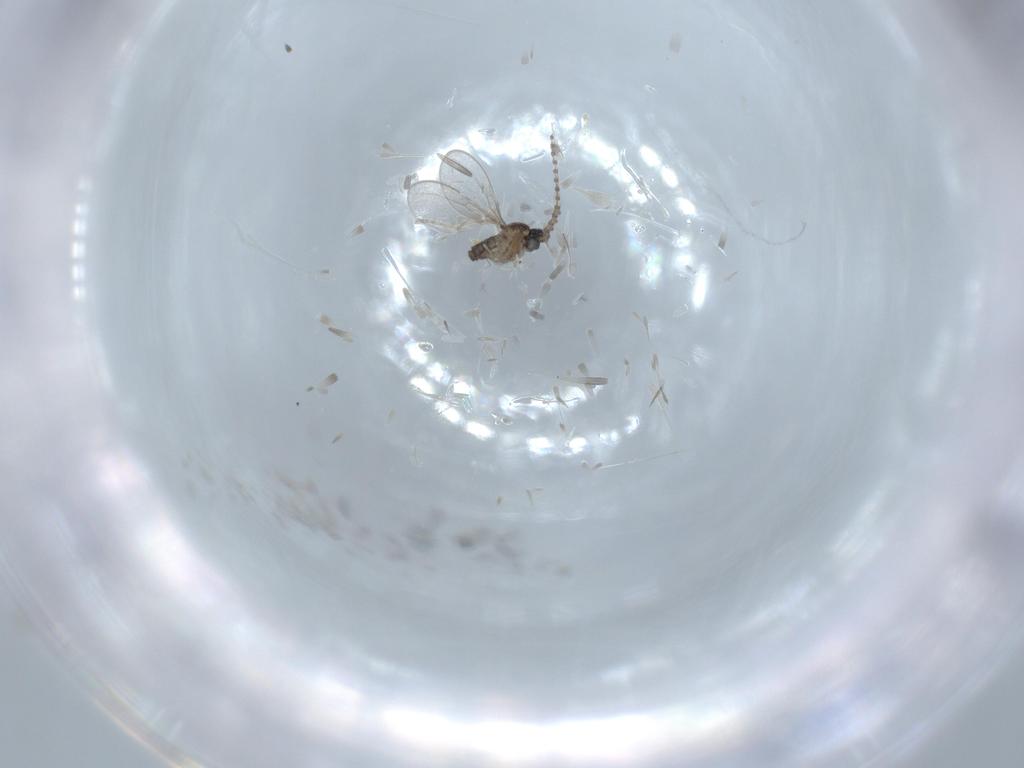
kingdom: Animalia
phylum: Arthropoda
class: Insecta
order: Diptera
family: Cecidomyiidae
